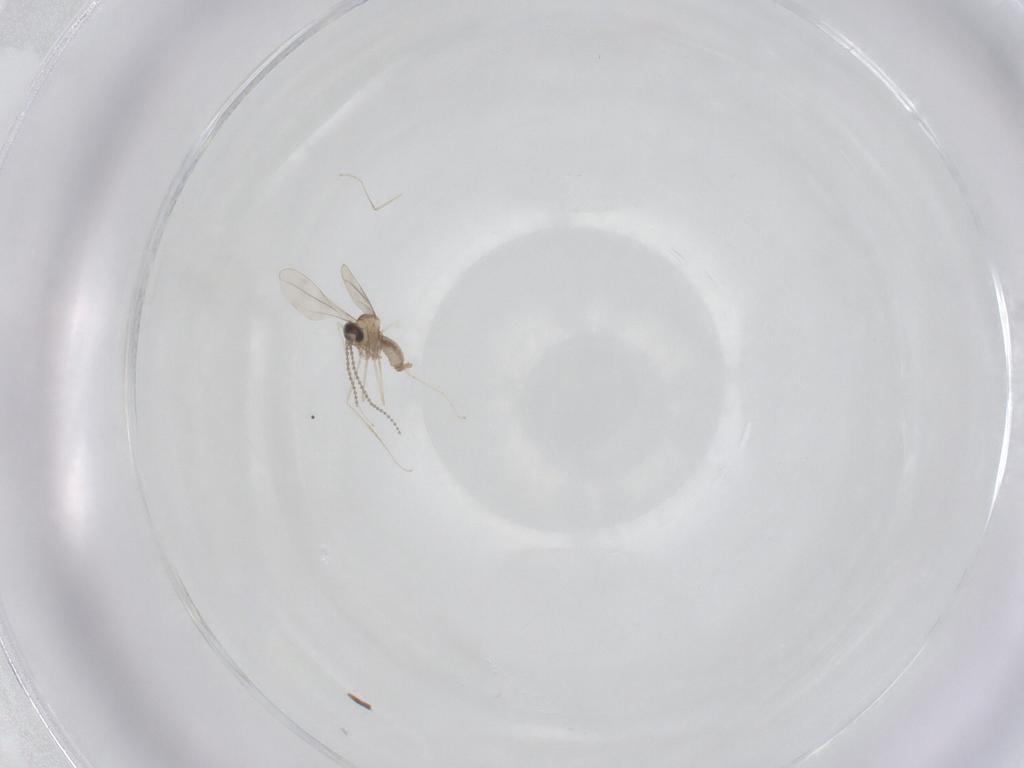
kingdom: Animalia
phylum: Arthropoda
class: Insecta
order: Diptera
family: Cecidomyiidae
